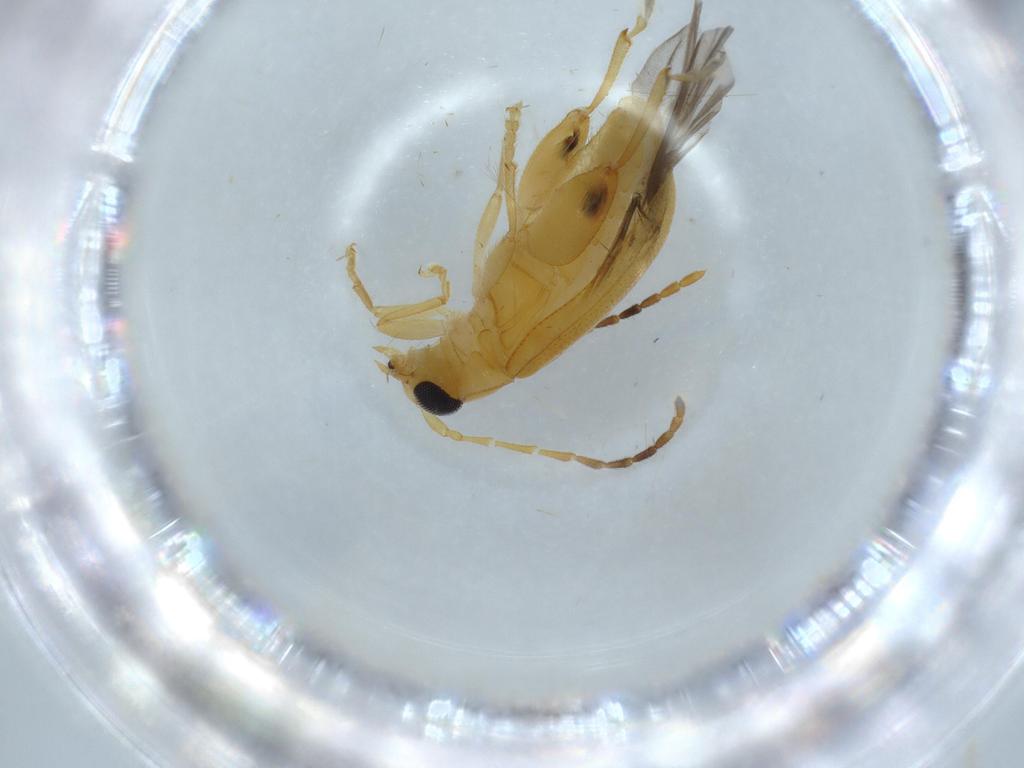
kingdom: Animalia
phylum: Arthropoda
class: Insecta
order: Coleoptera
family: Chrysomelidae
